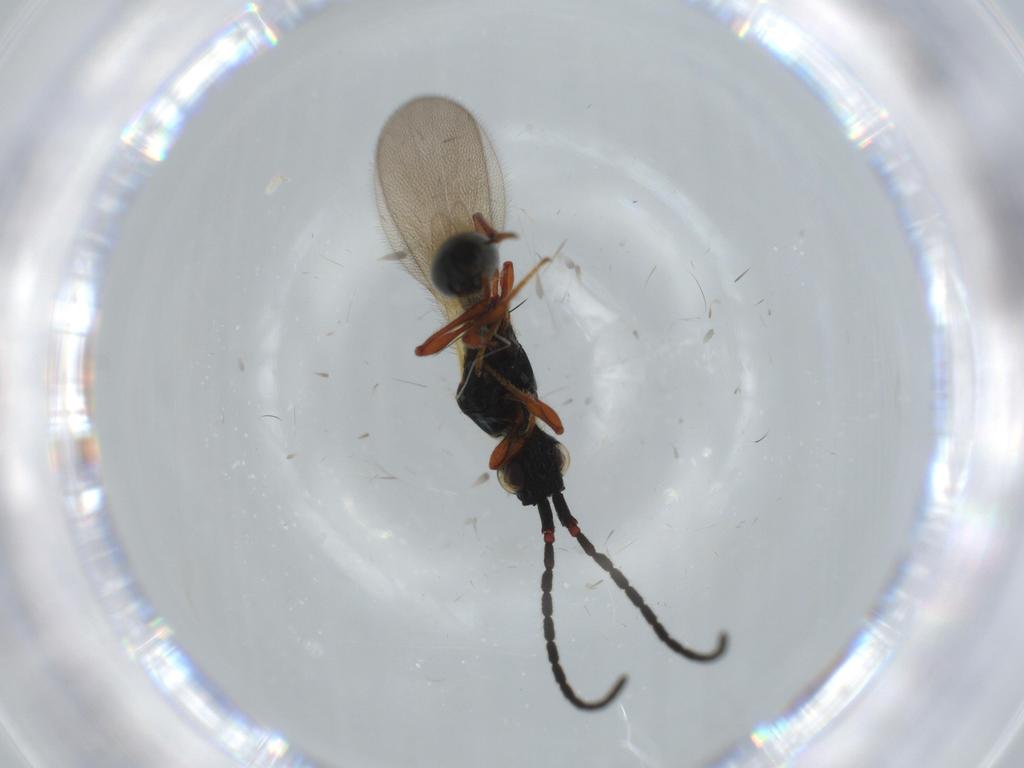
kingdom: Animalia
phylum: Arthropoda
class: Insecta
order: Hymenoptera
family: Diapriidae
